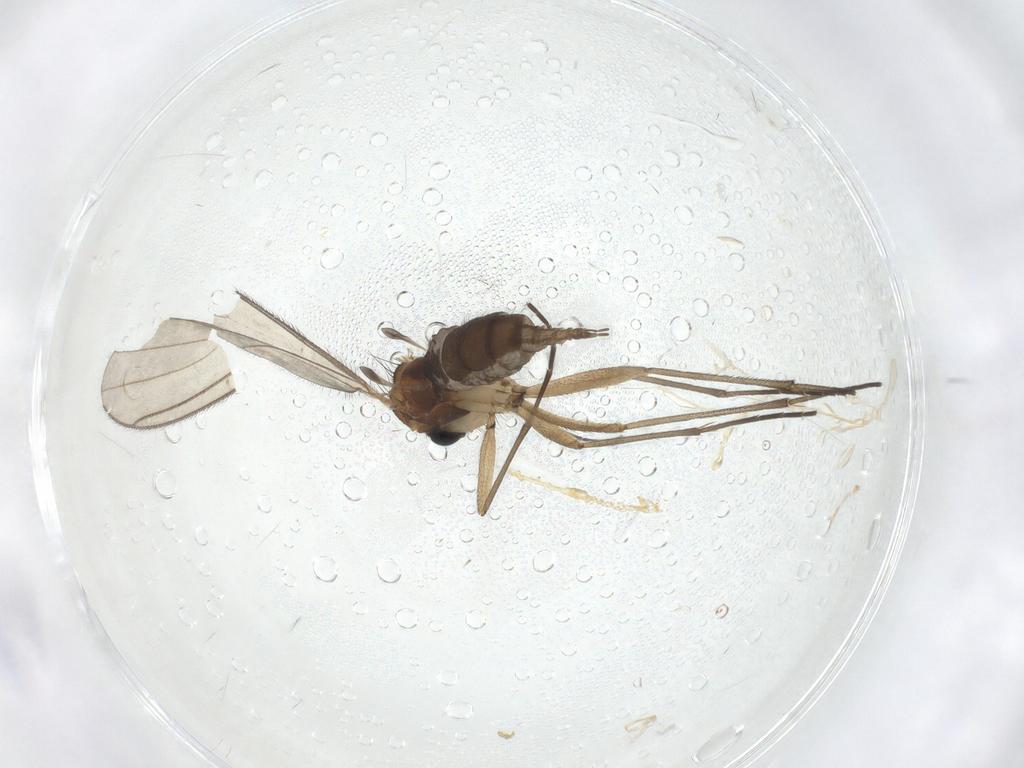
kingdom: Animalia
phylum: Arthropoda
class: Insecta
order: Diptera
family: Sciaridae
